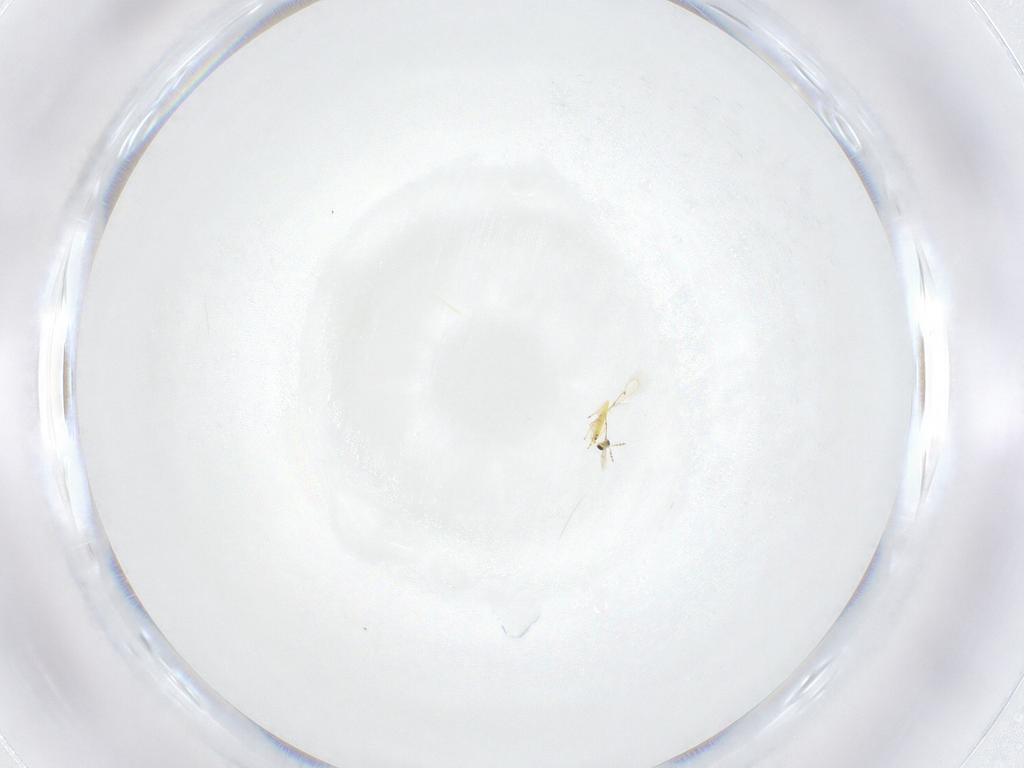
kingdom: Animalia
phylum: Arthropoda
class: Insecta
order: Hymenoptera
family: Trichogrammatidae
